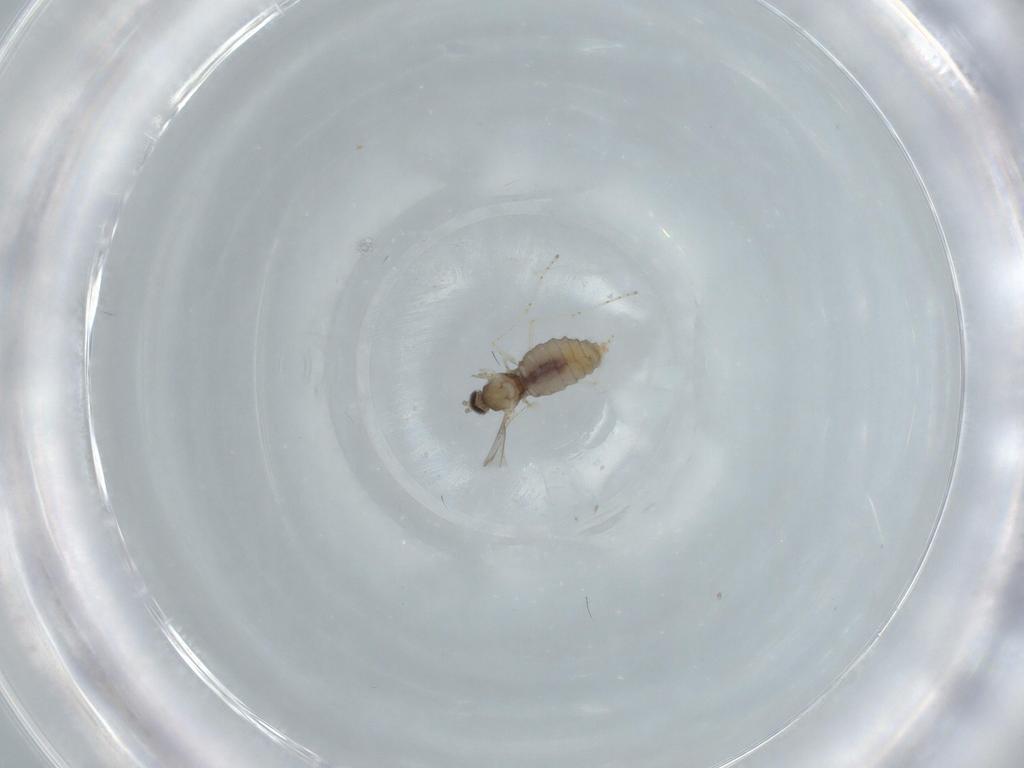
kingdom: Animalia
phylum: Arthropoda
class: Insecta
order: Diptera
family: Cecidomyiidae
